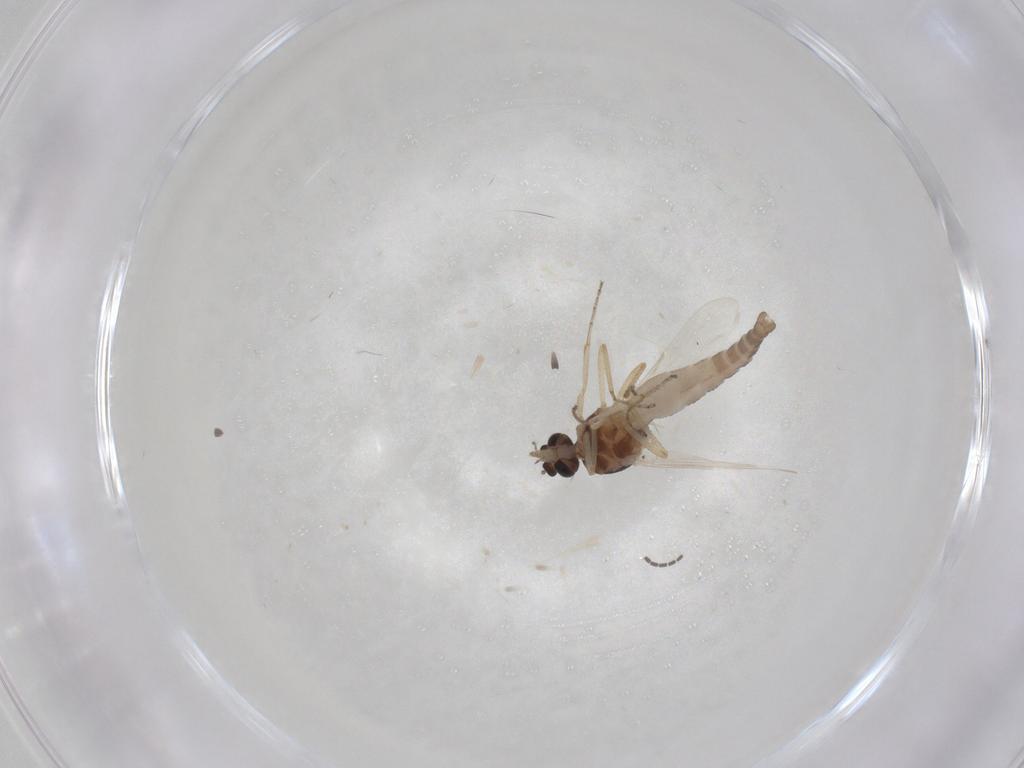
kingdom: Animalia
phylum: Arthropoda
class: Insecta
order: Diptera
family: Ceratopogonidae
